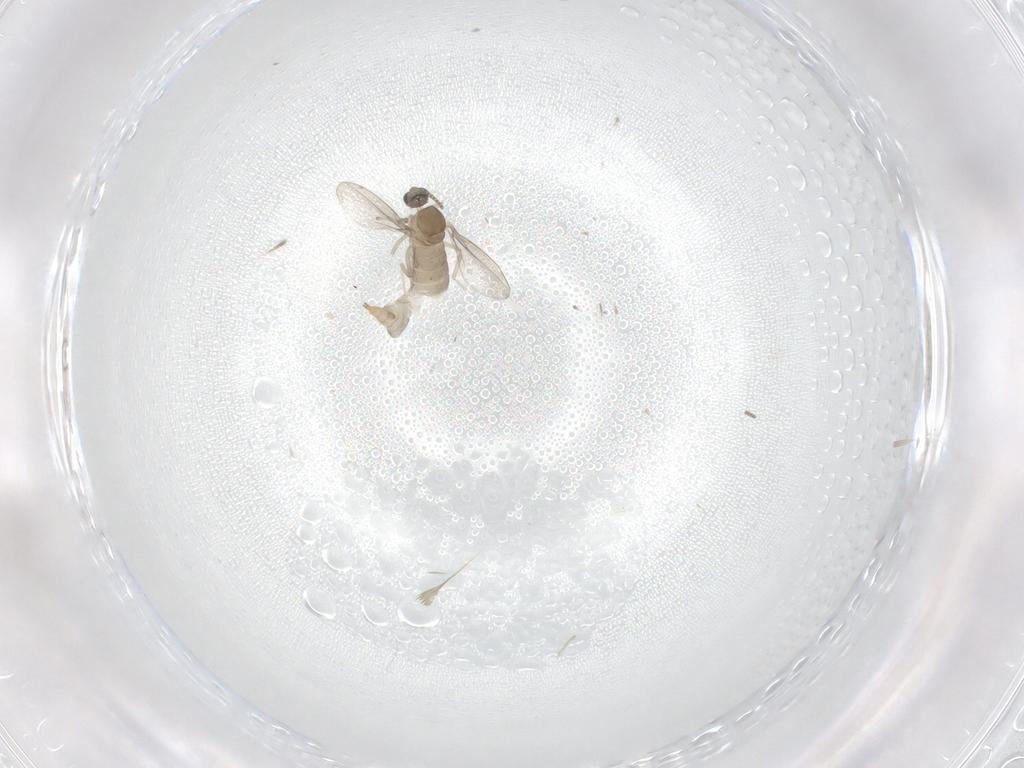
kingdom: Animalia
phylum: Arthropoda
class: Insecta
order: Diptera
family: Cecidomyiidae
